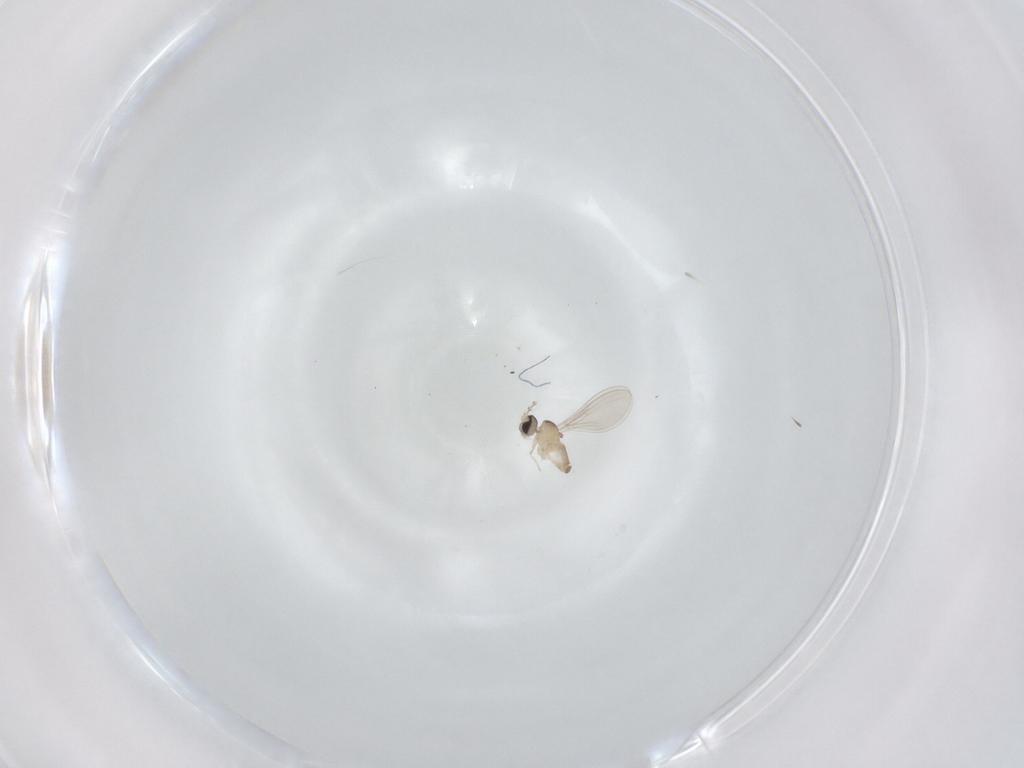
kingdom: Animalia
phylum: Arthropoda
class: Insecta
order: Diptera
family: Cecidomyiidae
